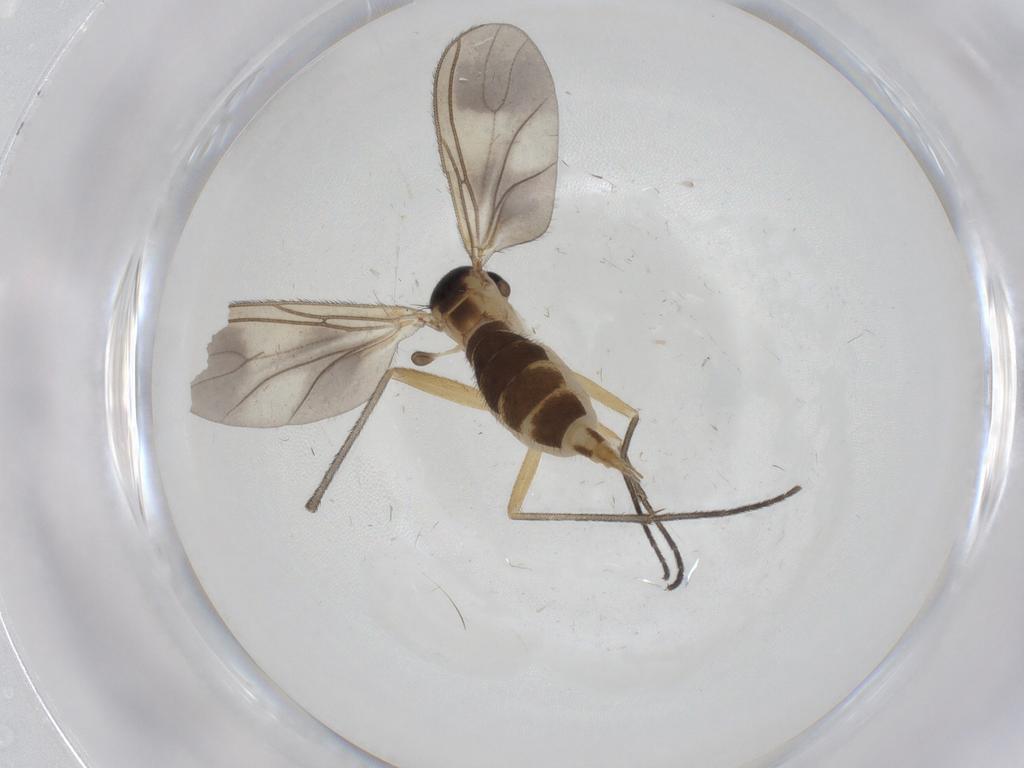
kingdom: Animalia
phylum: Arthropoda
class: Insecta
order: Diptera
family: Sciaridae
